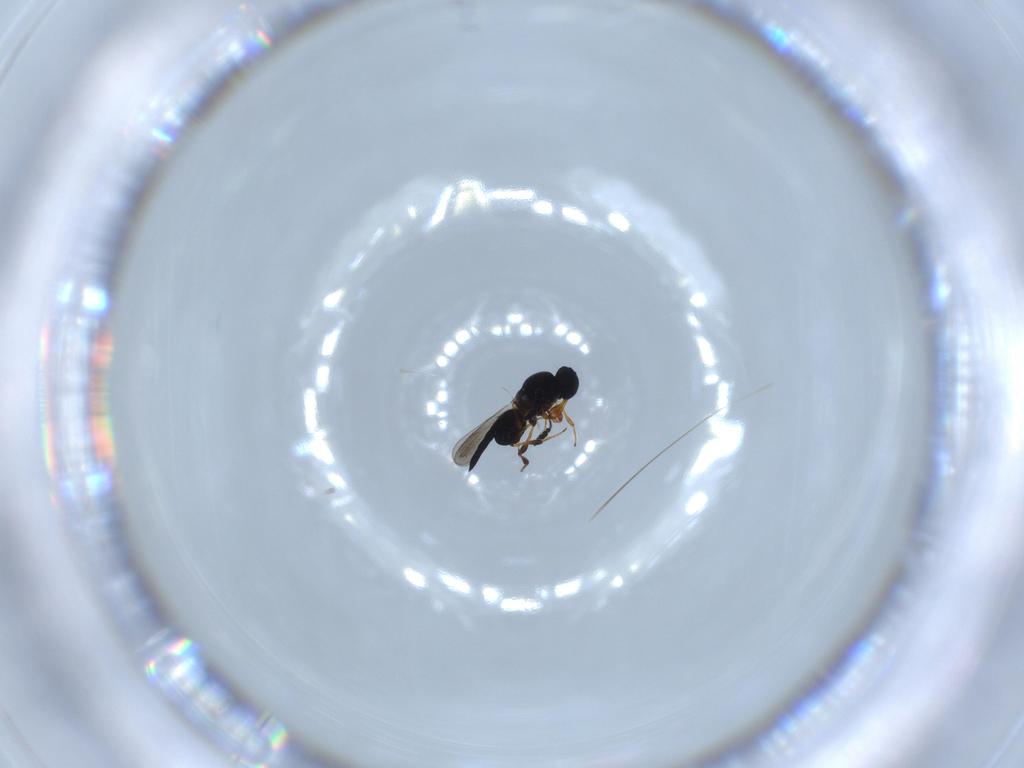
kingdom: Animalia
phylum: Arthropoda
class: Insecta
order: Hymenoptera
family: Platygastridae
